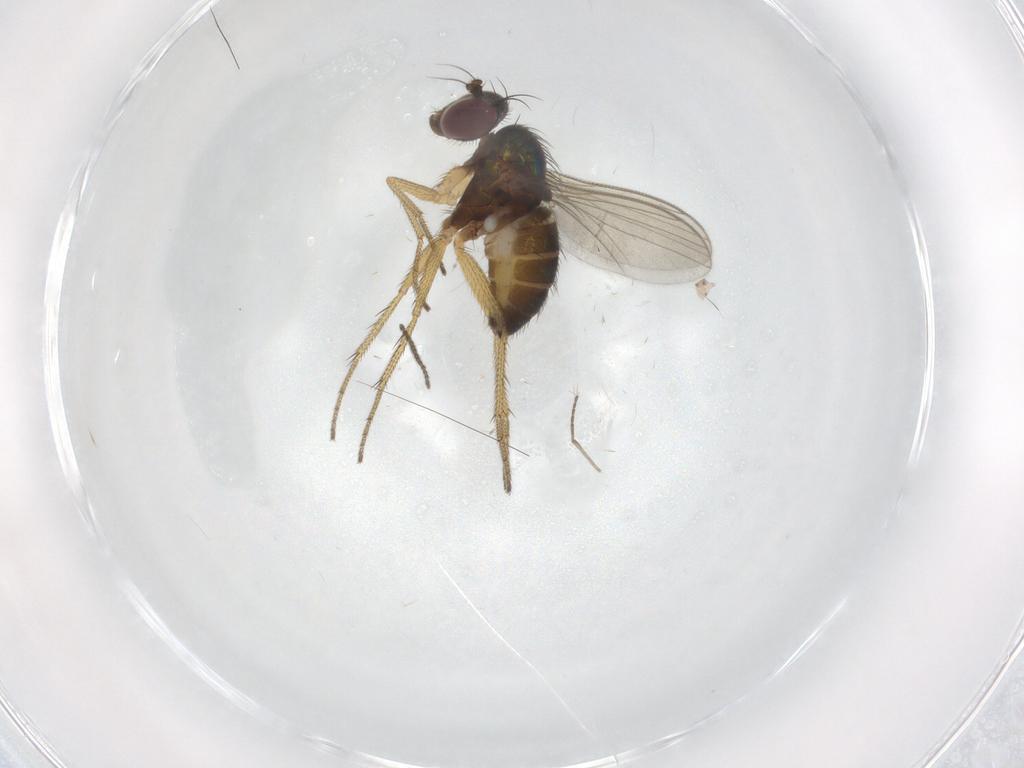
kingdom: Animalia
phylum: Arthropoda
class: Insecta
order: Diptera
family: Dolichopodidae
